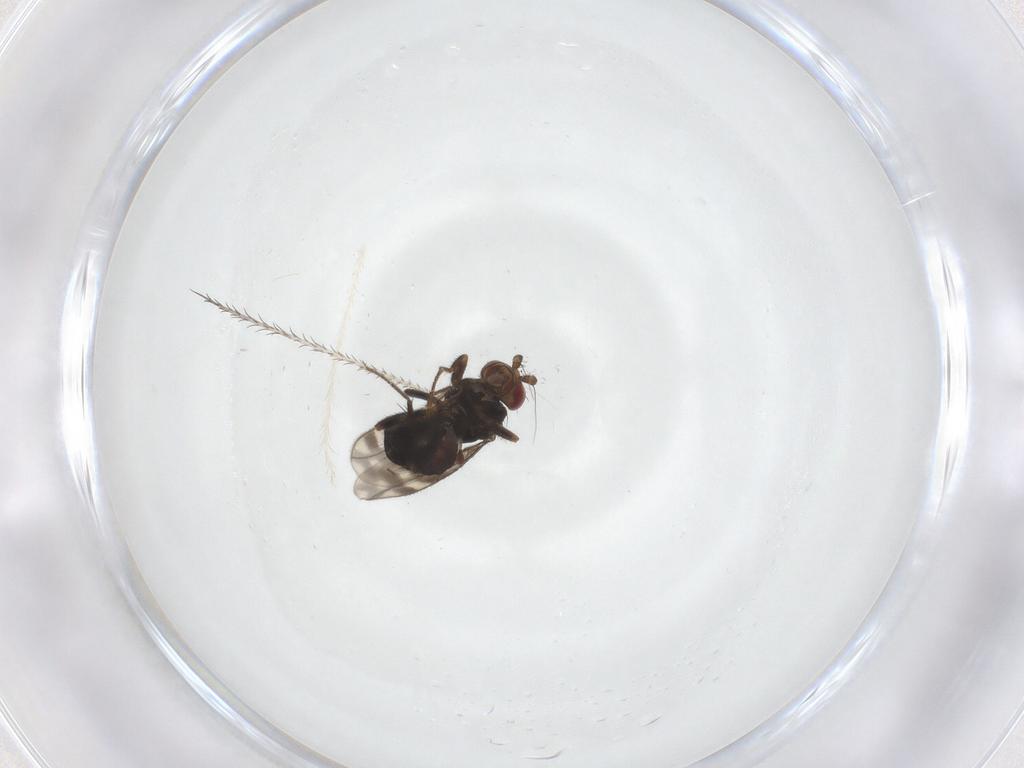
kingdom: Animalia
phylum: Arthropoda
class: Insecta
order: Diptera
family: Sphaeroceridae
